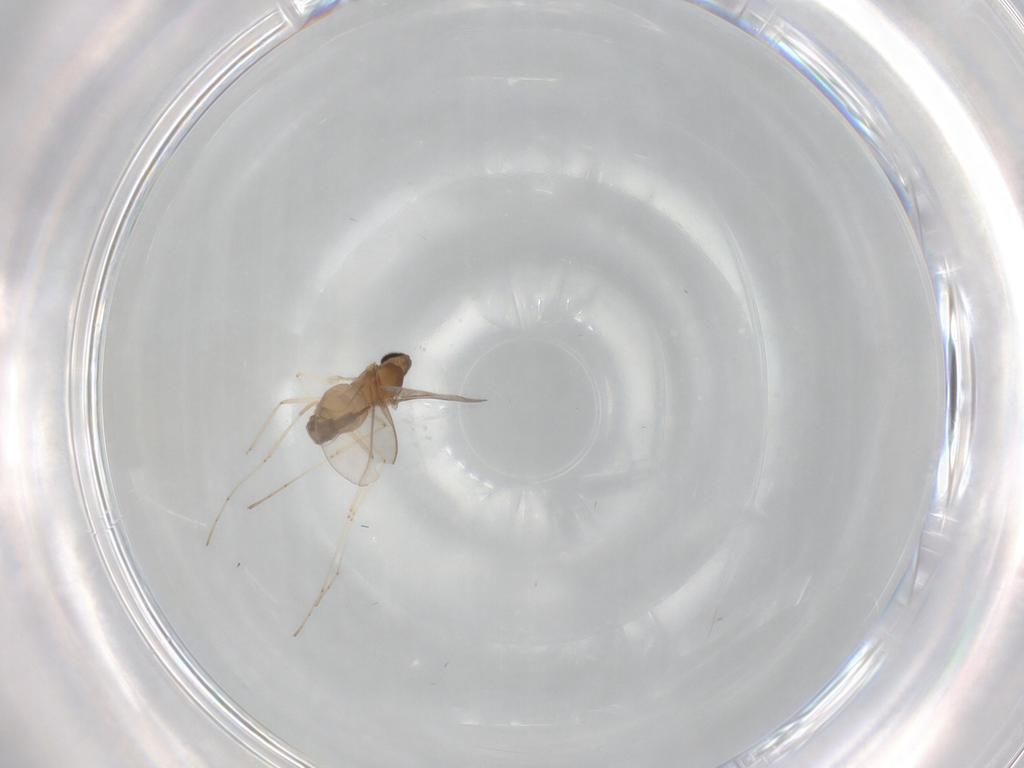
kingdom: Animalia
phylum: Arthropoda
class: Insecta
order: Diptera
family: Cecidomyiidae
